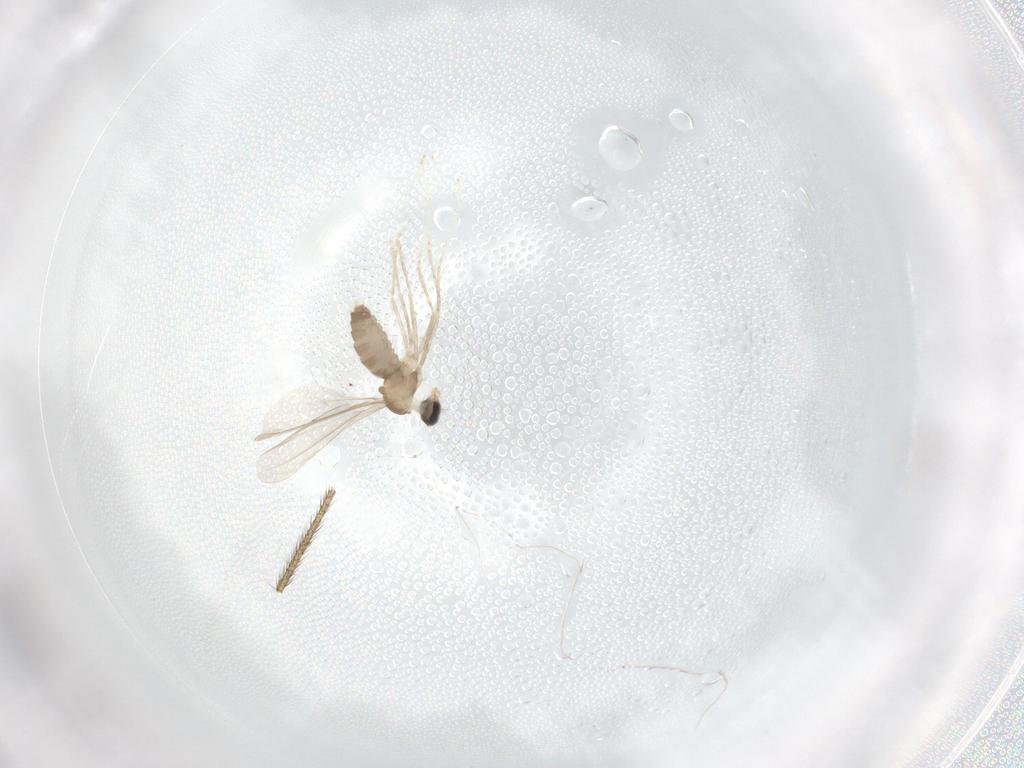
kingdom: Animalia
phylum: Arthropoda
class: Insecta
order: Diptera
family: Cecidomyiidae
